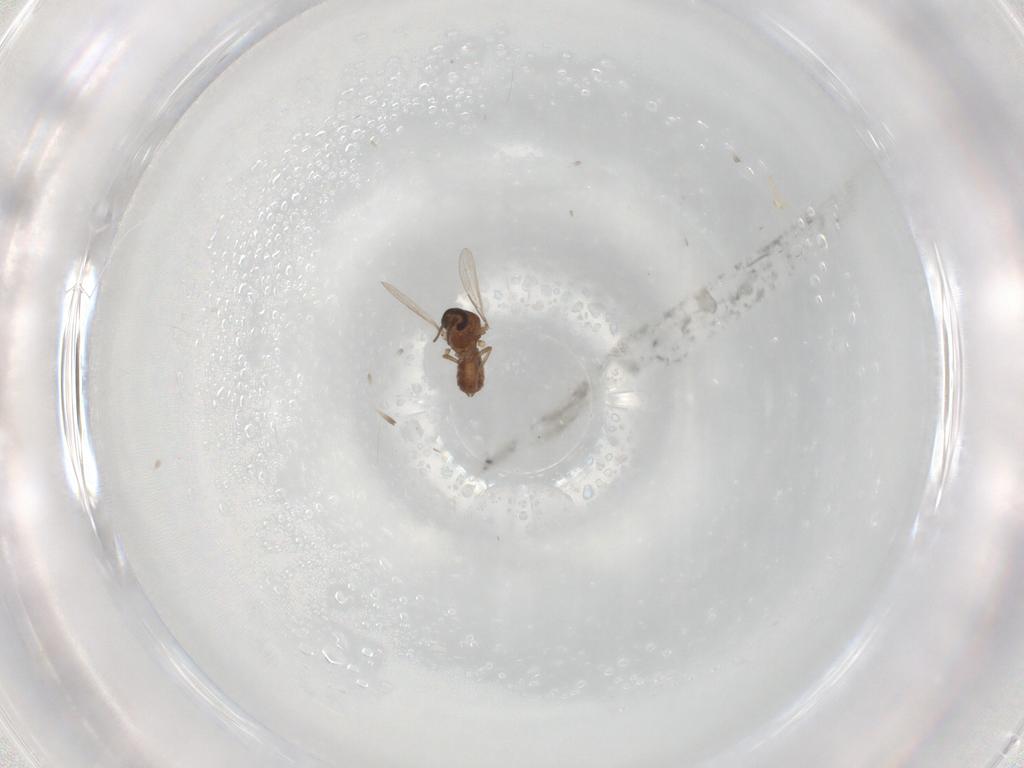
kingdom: Animalia
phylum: Arthropoda
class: Insecta
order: Diptera
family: Ceratopogonidae
